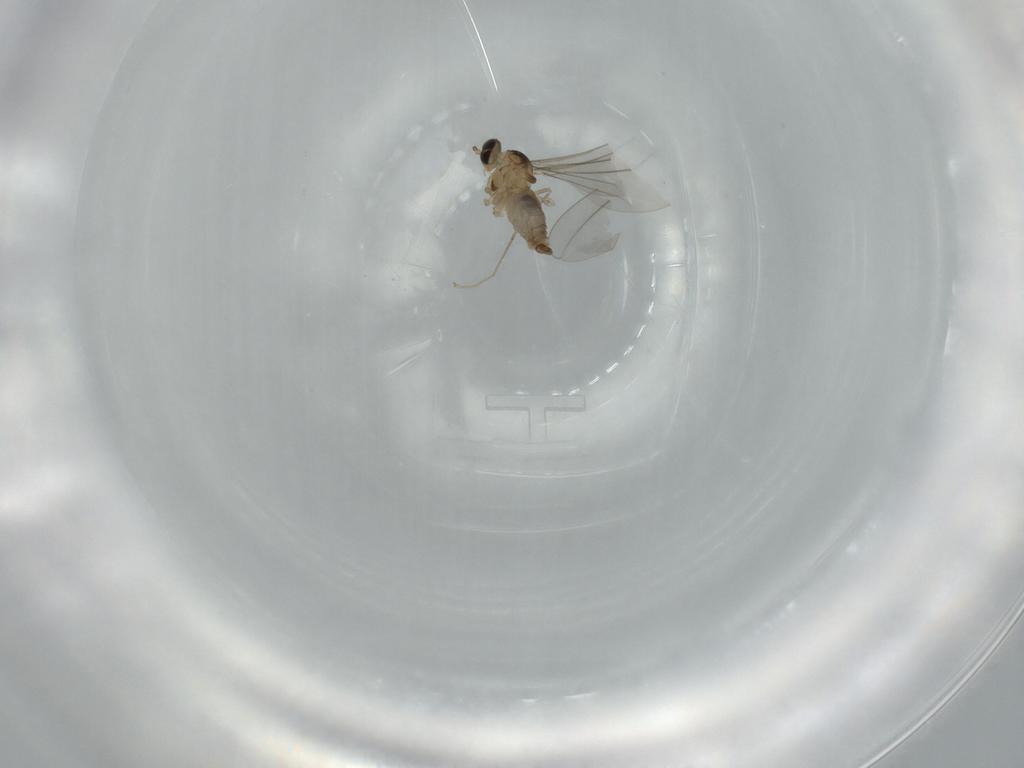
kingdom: Animalia
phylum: Arthropoda
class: Insecta
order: Diptera
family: Cecidomyiidae
